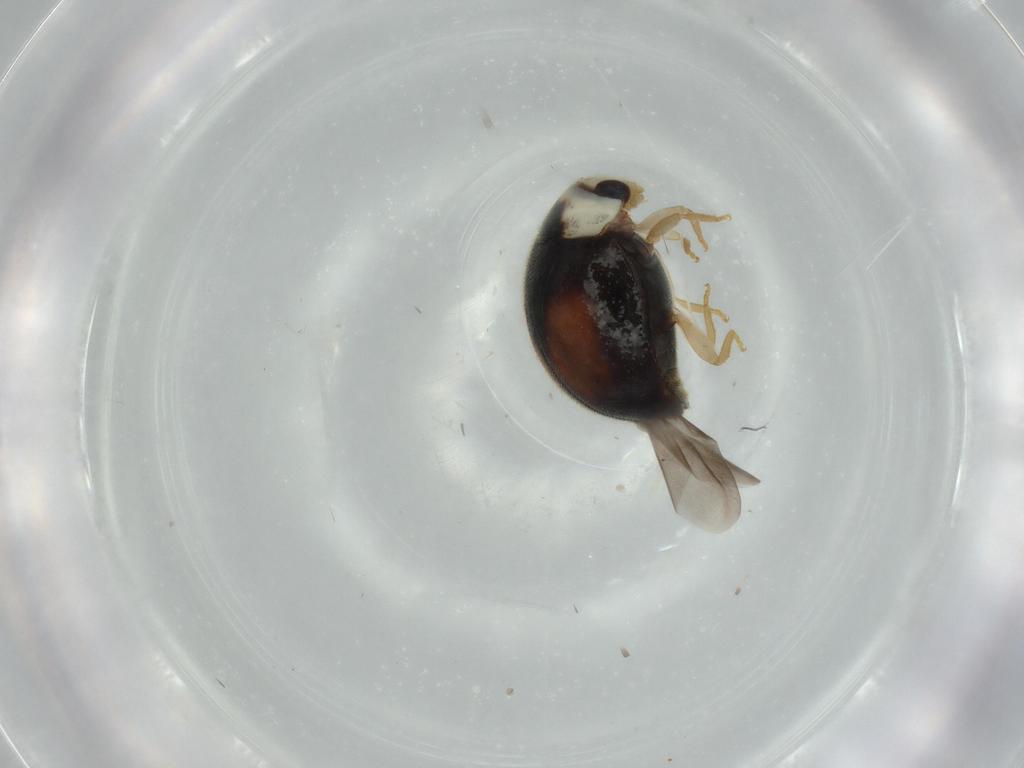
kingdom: Animalia
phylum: Arthropoda
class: Insecta
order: Coleoptera
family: Coccinellidae
